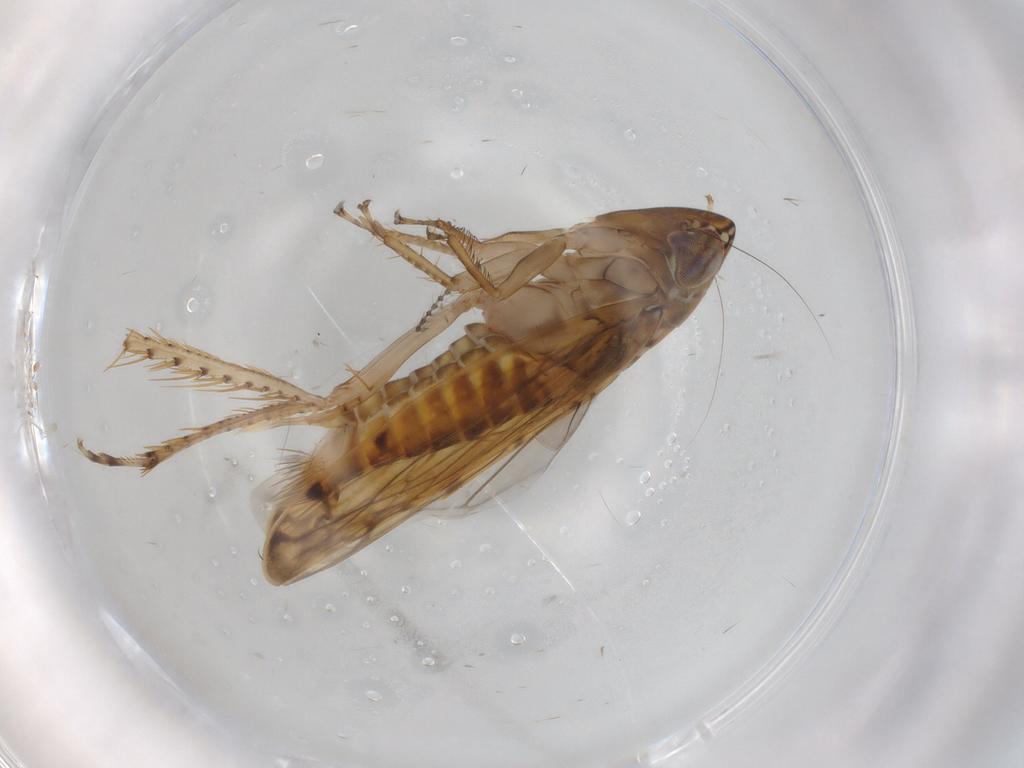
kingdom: Animalia
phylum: Arthropoda
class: Insecta
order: Hemiptera
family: Cicadellidae
